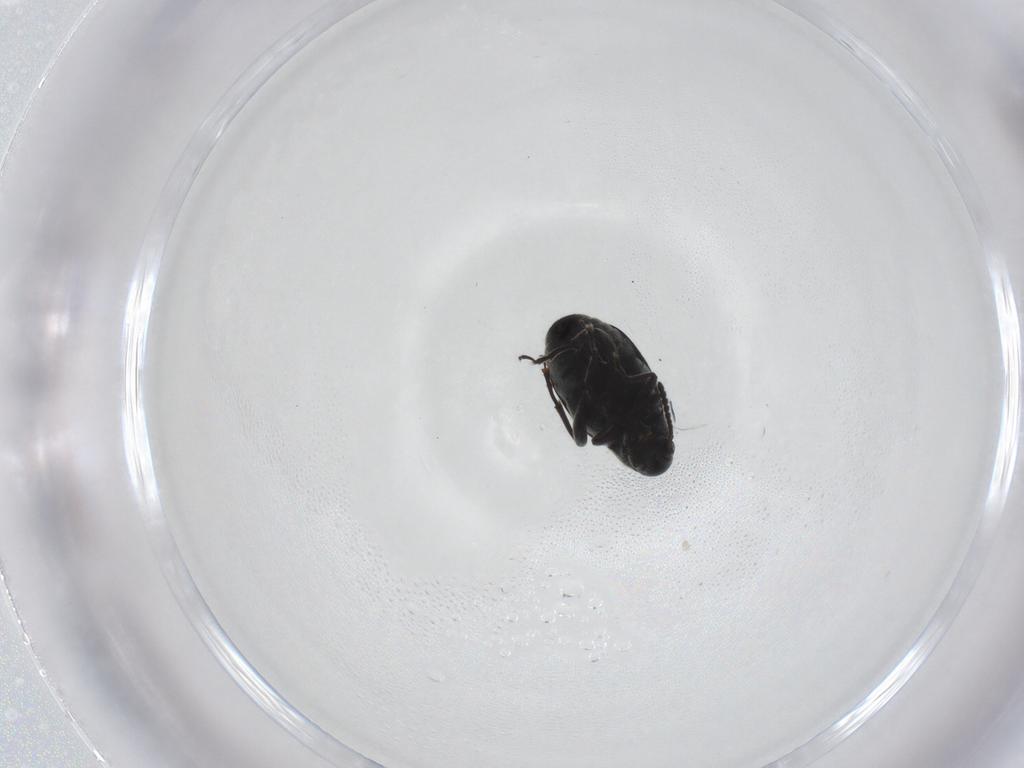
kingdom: Animalia
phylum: Arthropoda
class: Insecta
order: Coleoptera
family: Chrysomelidae
